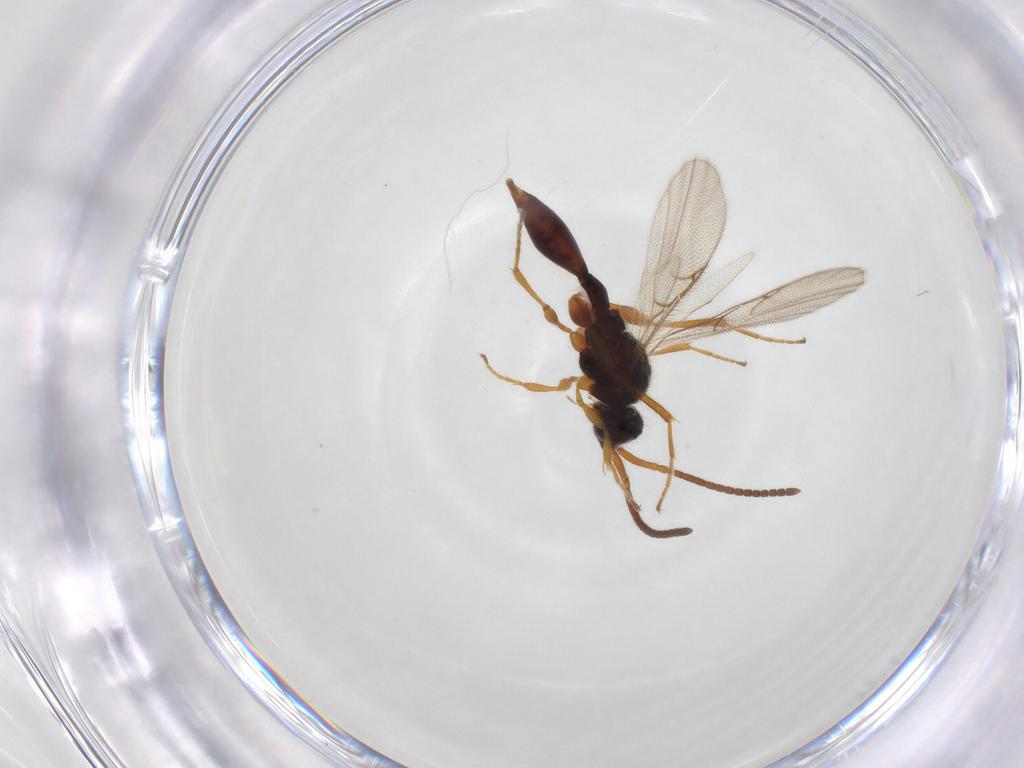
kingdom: Animalia
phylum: Arthropoda
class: Insecta
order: Hymenoptera
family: Diapriidae
